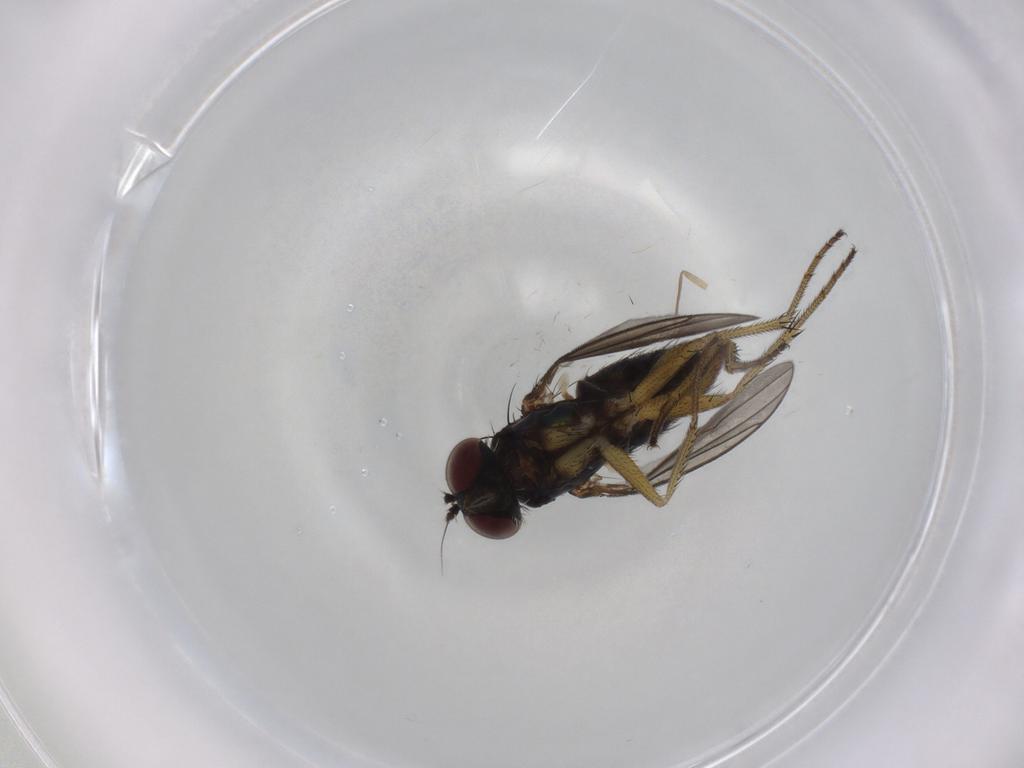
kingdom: Animalia
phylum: Arthropoda
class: Insecta
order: Diptera
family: Dolichopodidae
